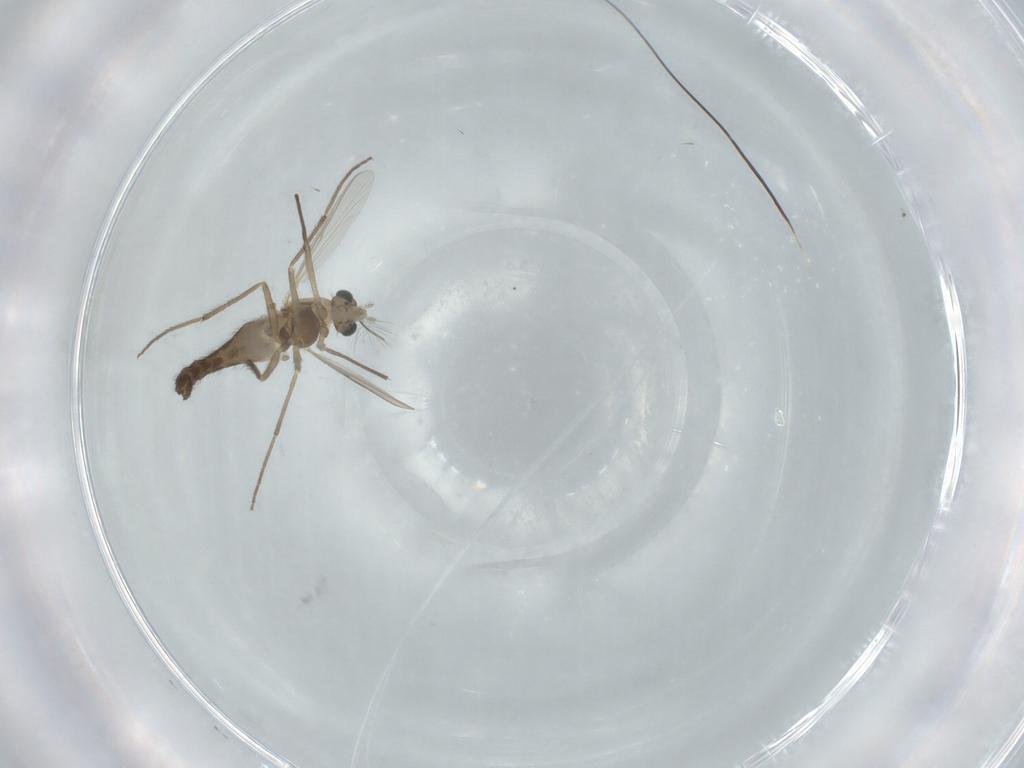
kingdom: Animalia
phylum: Arthropoda
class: Insecta
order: Diptera
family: Chironomidae
